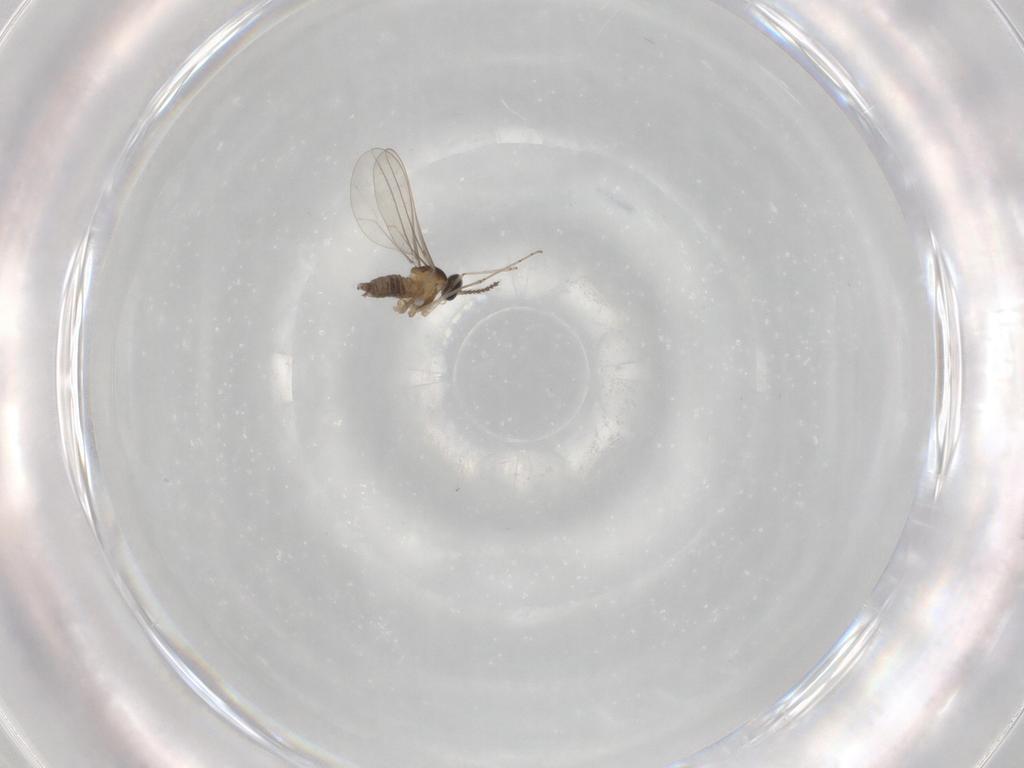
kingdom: Animalia
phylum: Arthropoda
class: Insecta
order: Diptera
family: Cecidomyiidae
